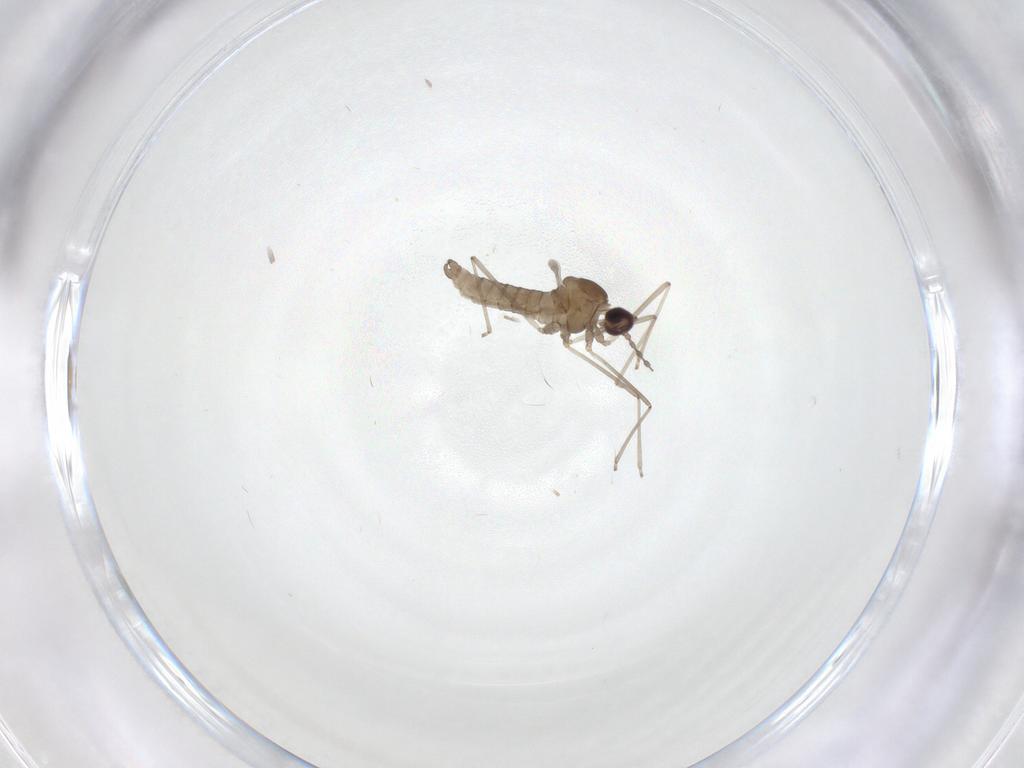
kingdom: Animalia
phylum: Arthropoda
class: Insecta
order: Diptera
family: Cecidomyiidae
